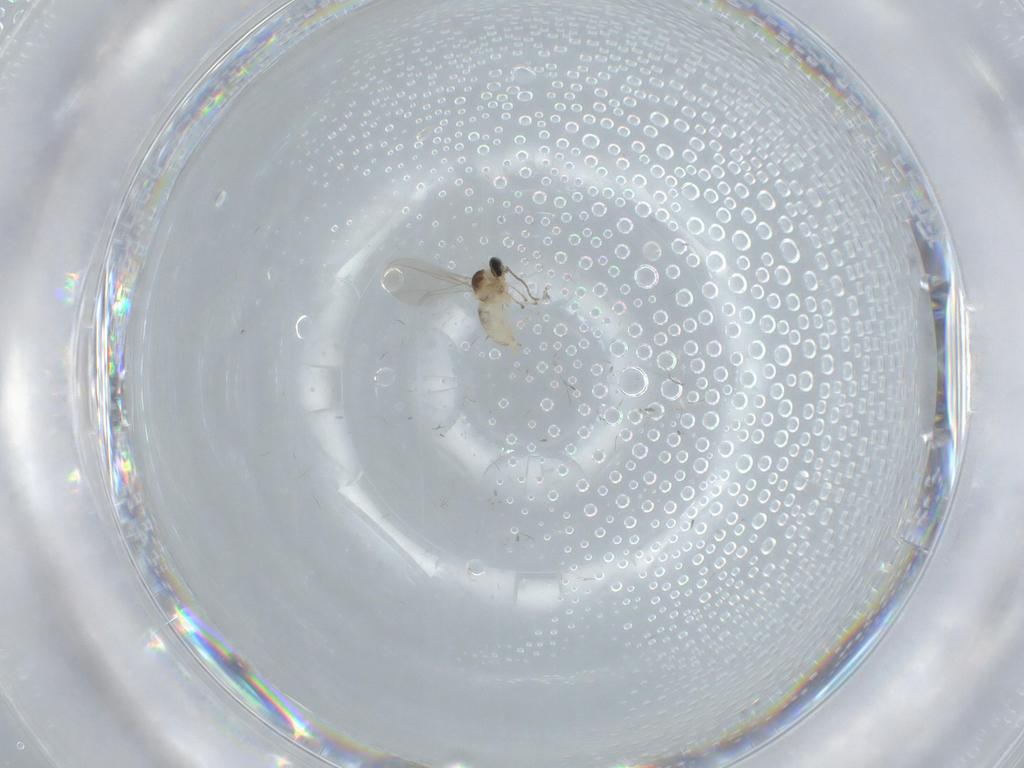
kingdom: Animalia
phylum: Arthropoda
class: Insecta
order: Diptera
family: Cecidomyiidae
